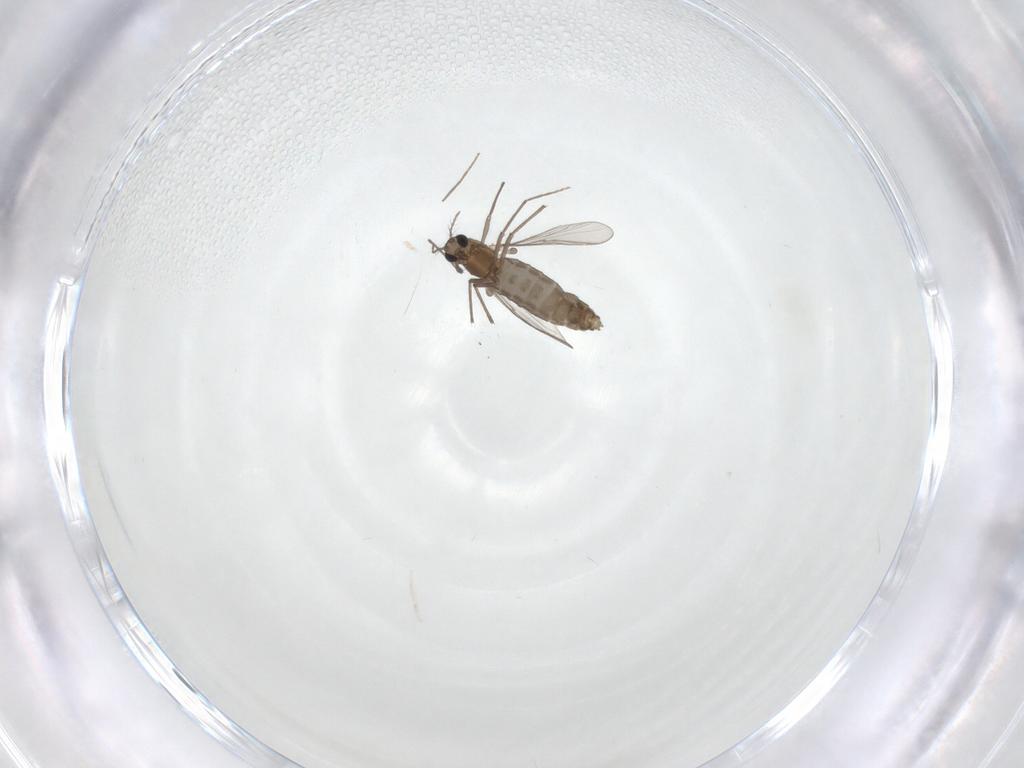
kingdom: Animalia
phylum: Arthropoda
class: Insecta
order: Diptera
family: Chironomidae
